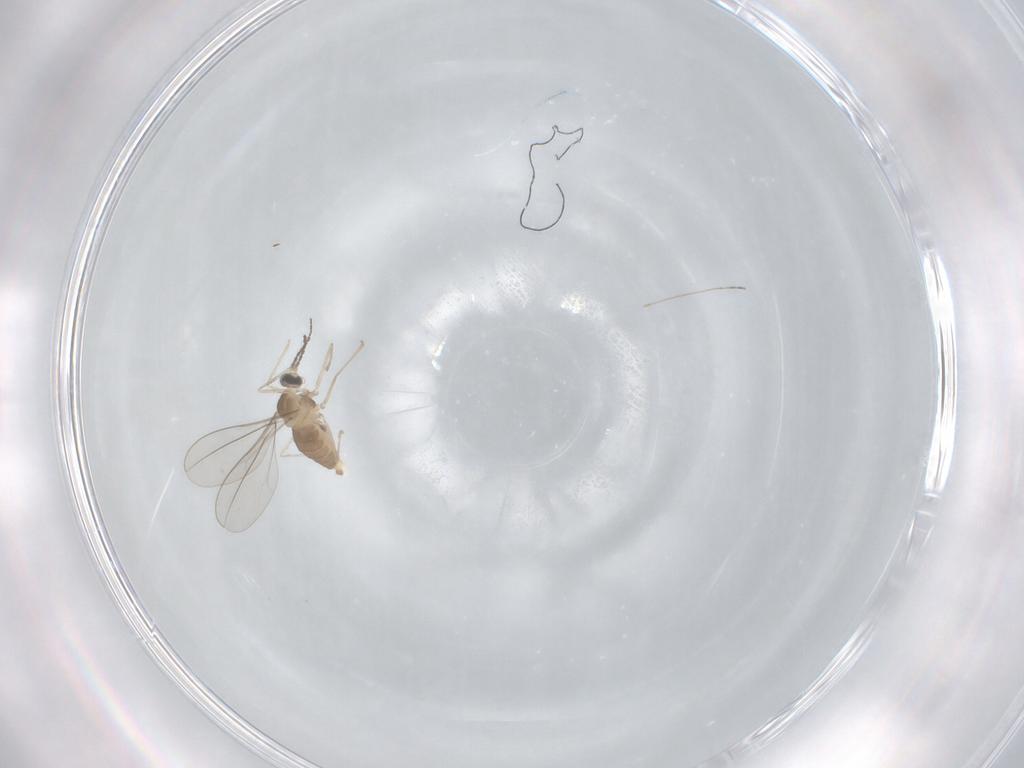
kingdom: Animalia
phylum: Arthropoda
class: Insecta
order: Diptera
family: Cecidomyiidae
